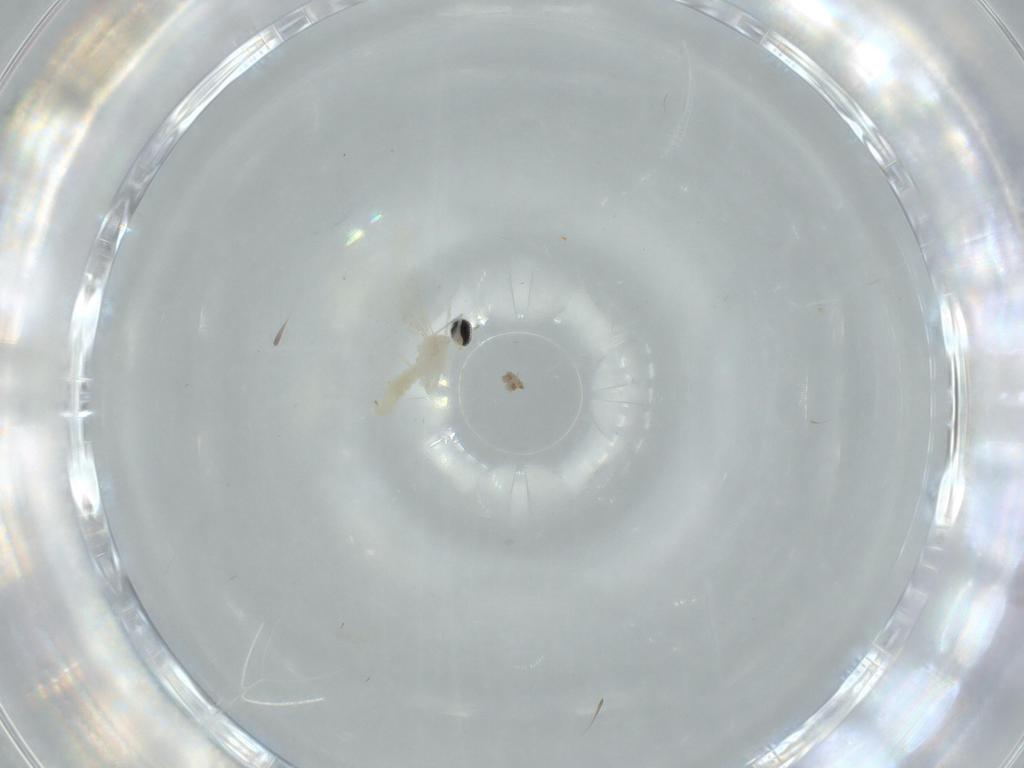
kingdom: Animalia
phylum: Arthropoda
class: Insecta
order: Diptera
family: Cecidomyiidae
